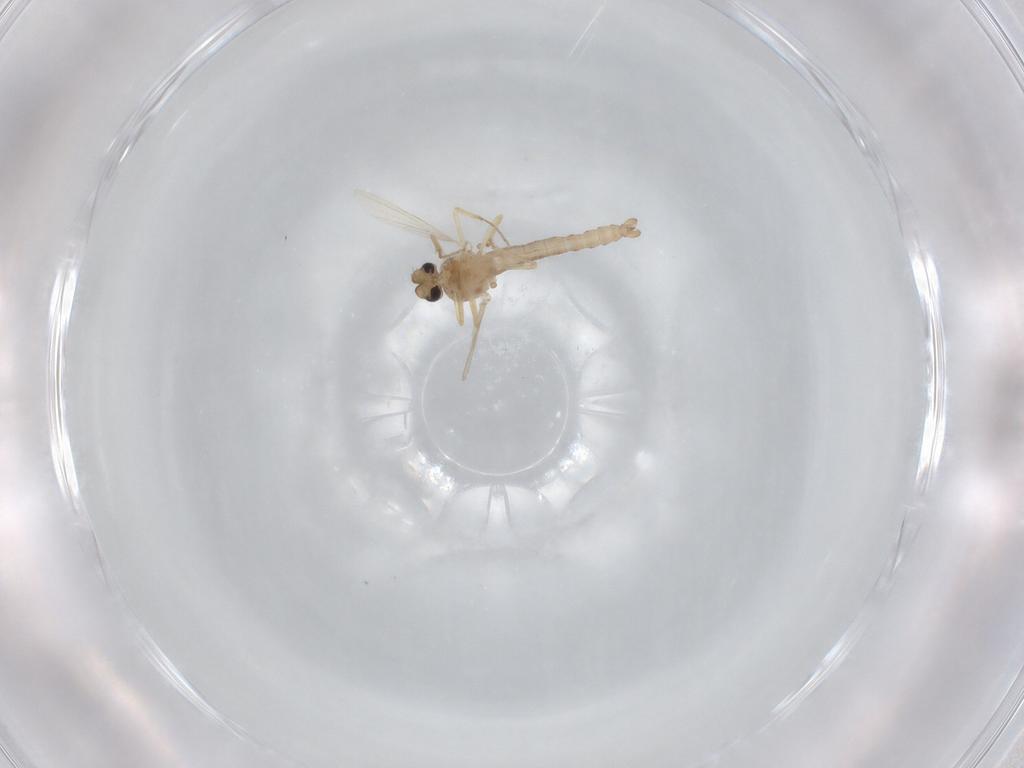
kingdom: Animalia
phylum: Arthropoda
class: Insecta
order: Diptera
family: Ceratopogonidae
